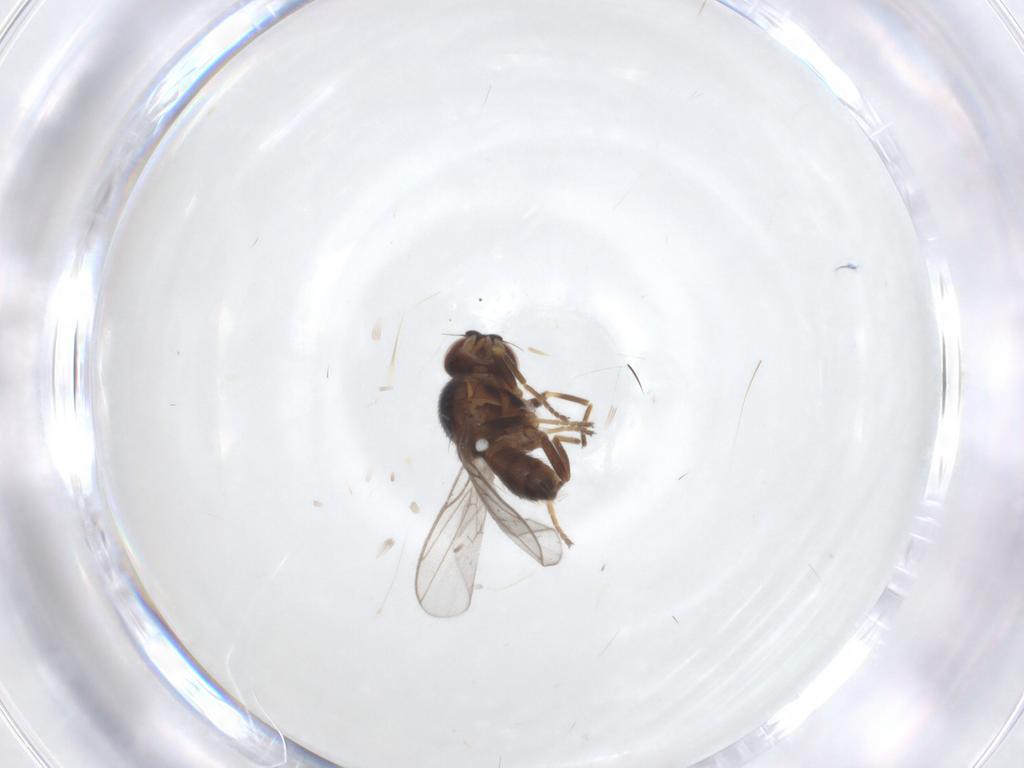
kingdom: Animalia
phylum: Arthropoda
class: Insecta
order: Diptera
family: Chloropidae
